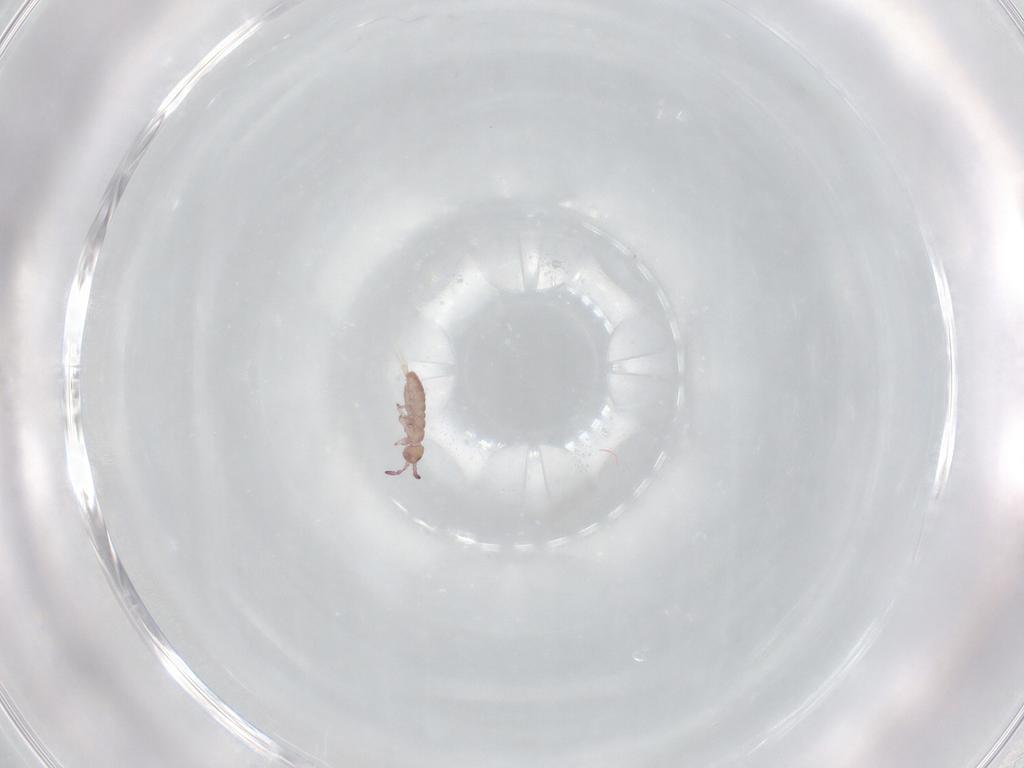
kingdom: Animalia
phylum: Arthropoda
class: Collembola
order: Entomobryomorpha
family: Isotomidae
